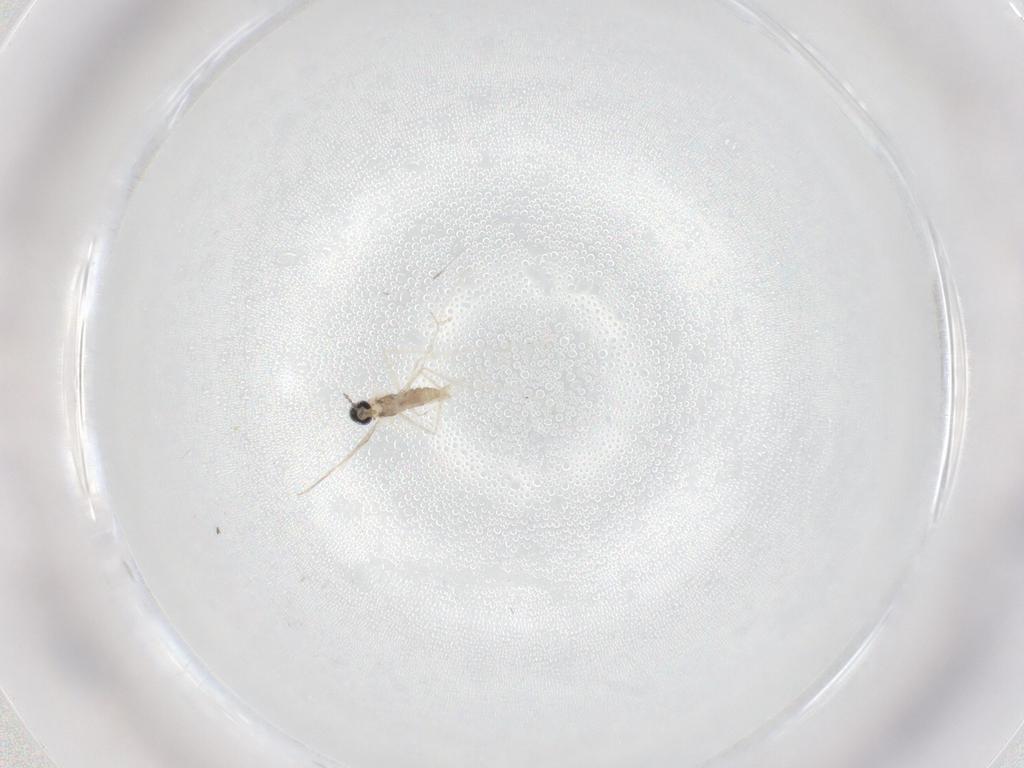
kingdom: Animalia
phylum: Arthropoda
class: Insecta
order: Diptera
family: Cecidomyiidae
